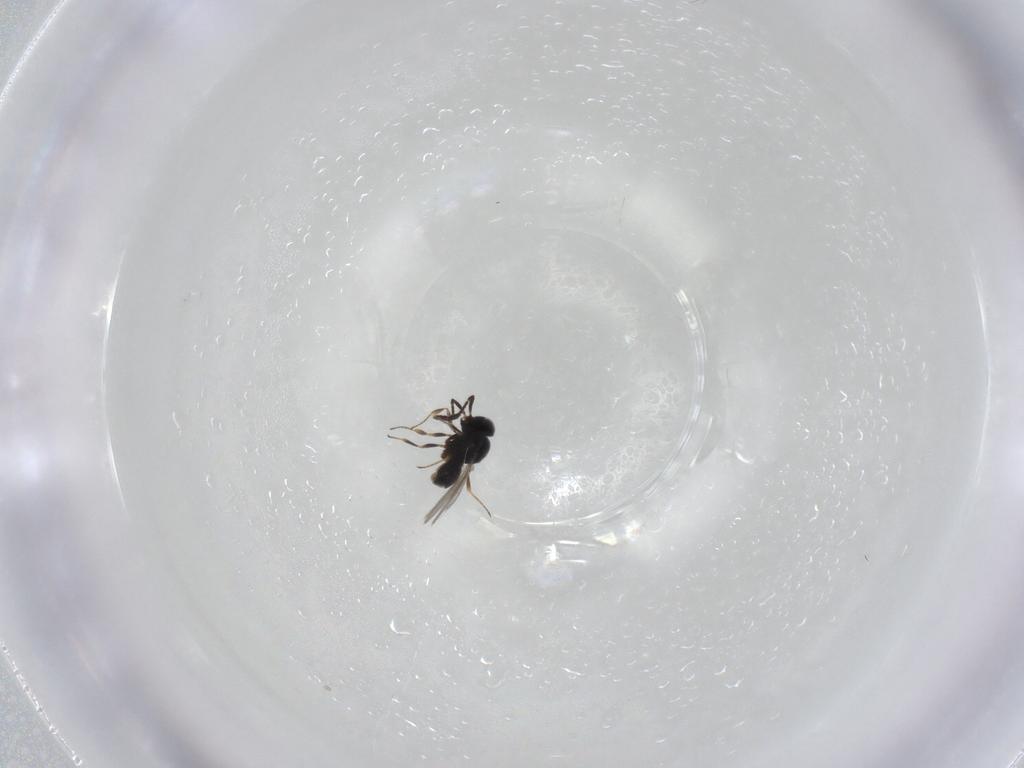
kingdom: Animalia
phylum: Arthropoda
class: Insecta
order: Hymenoptera
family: Scelionidae
